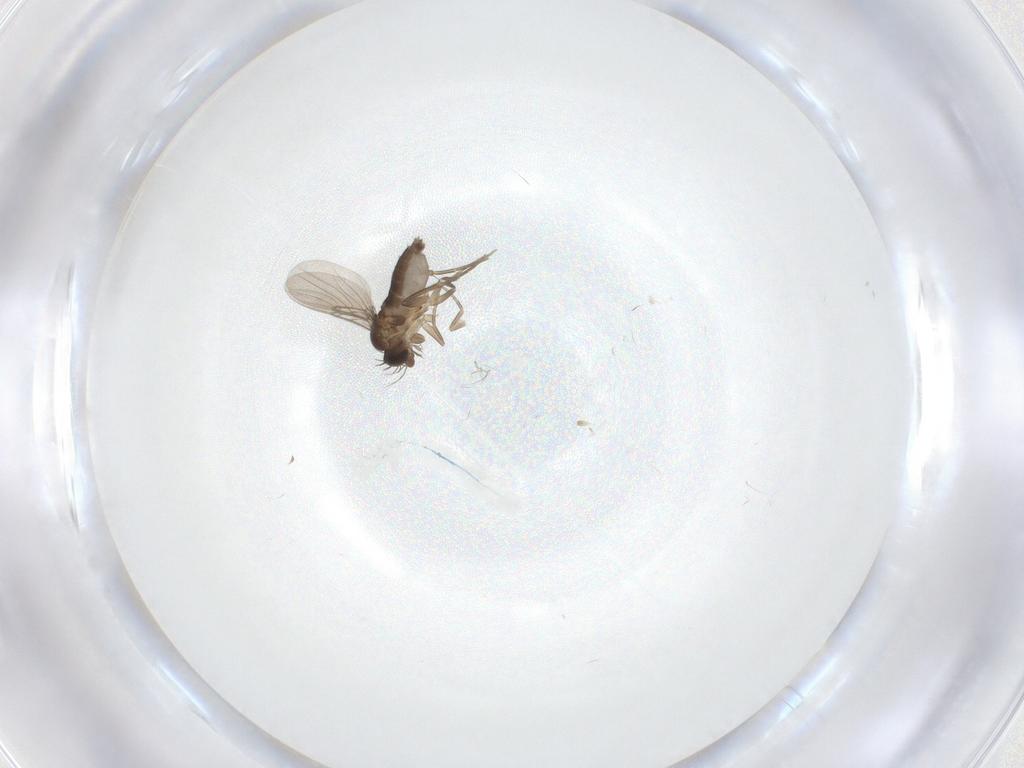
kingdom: Animalia
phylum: Arthropoda
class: Insecta
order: Diptera
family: Phoridae
